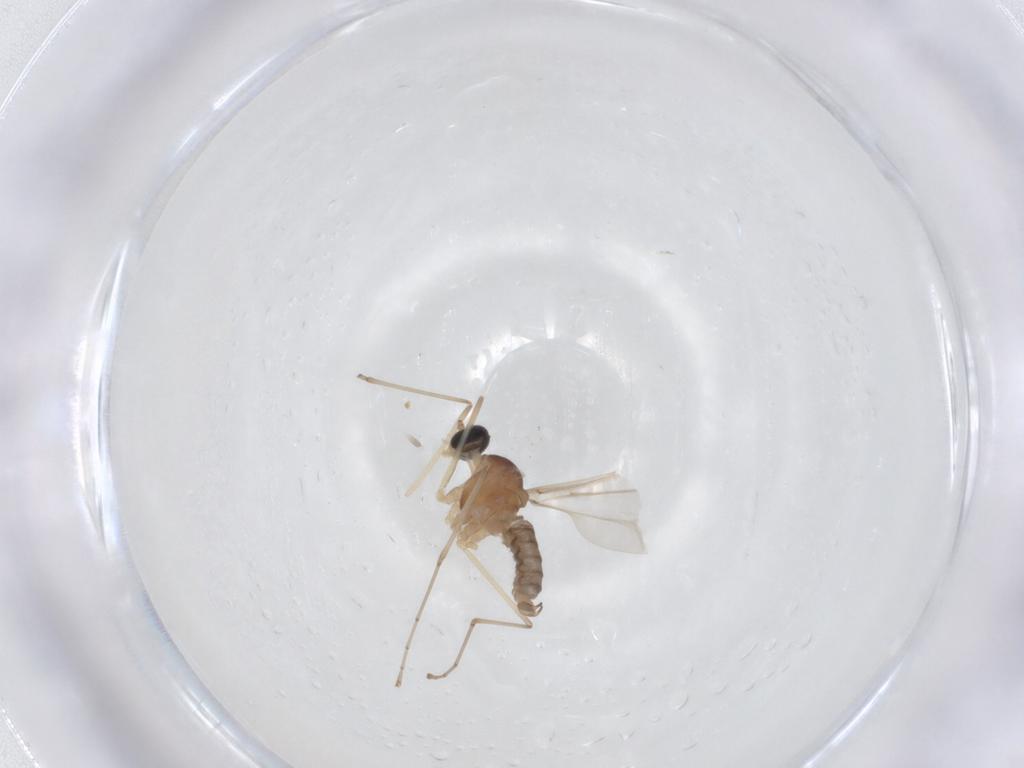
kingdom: Animalia
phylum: Arthropoda
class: Insecta
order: Diptera
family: Cecidomyiidae
